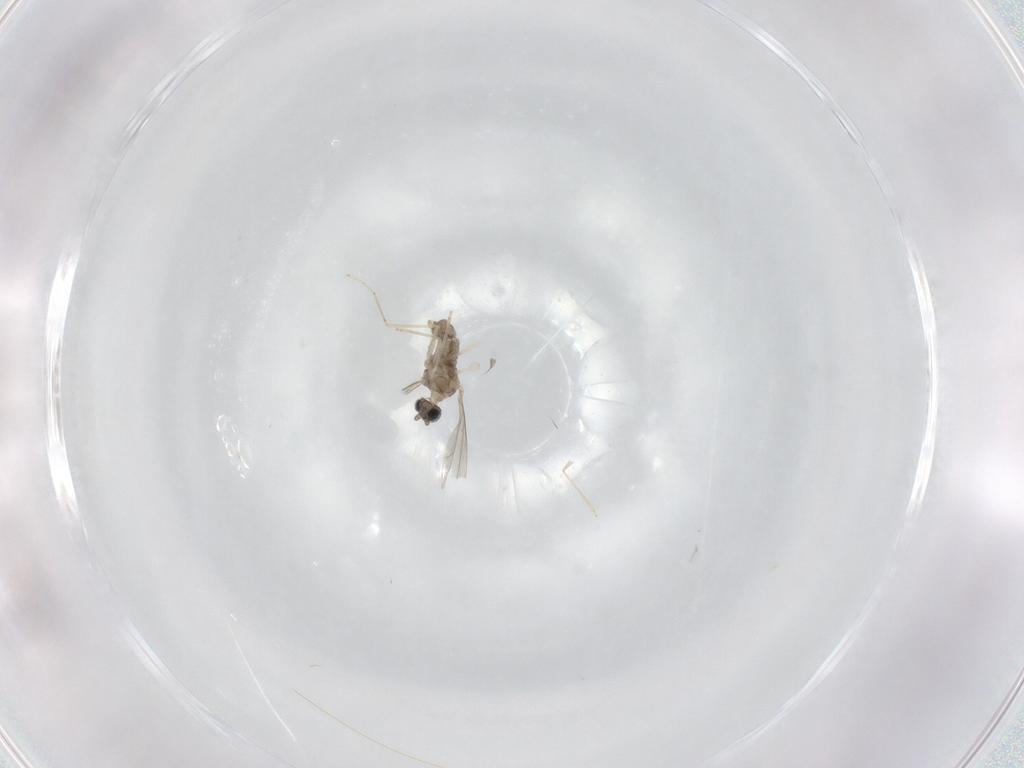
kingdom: Animalia
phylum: Arthropoda
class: Insecta
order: Diptera
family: Cecidomyiidae
